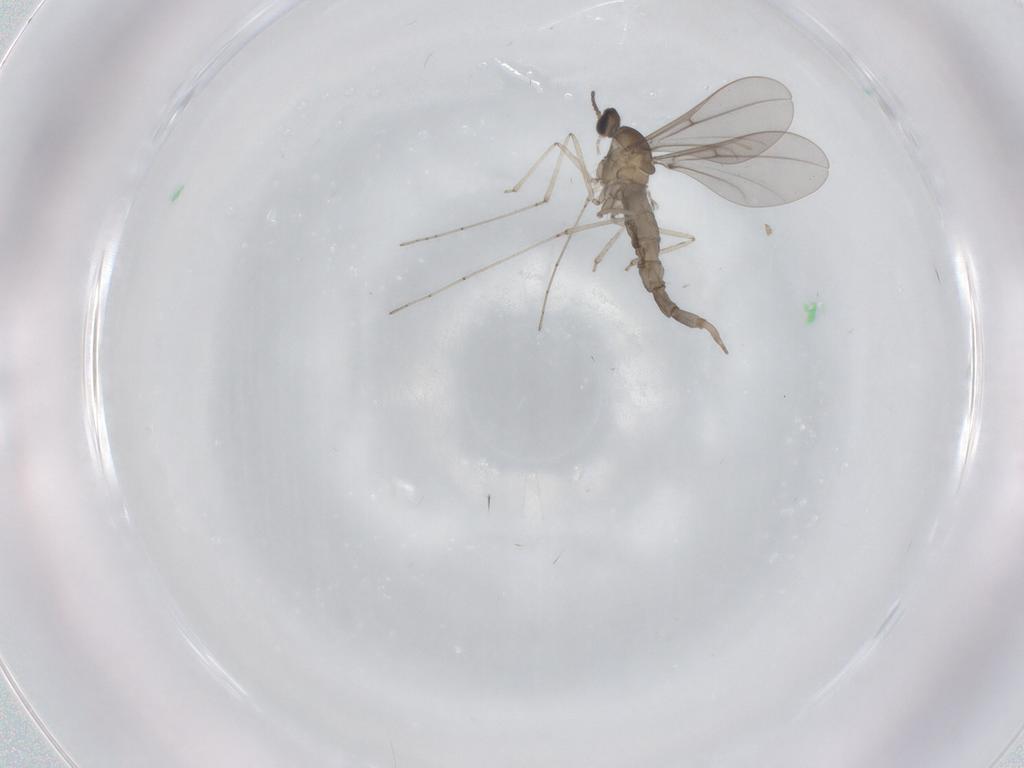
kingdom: Animalia
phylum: Arthropoda
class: Insecta
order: Diptera
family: Cecidomyiidae
